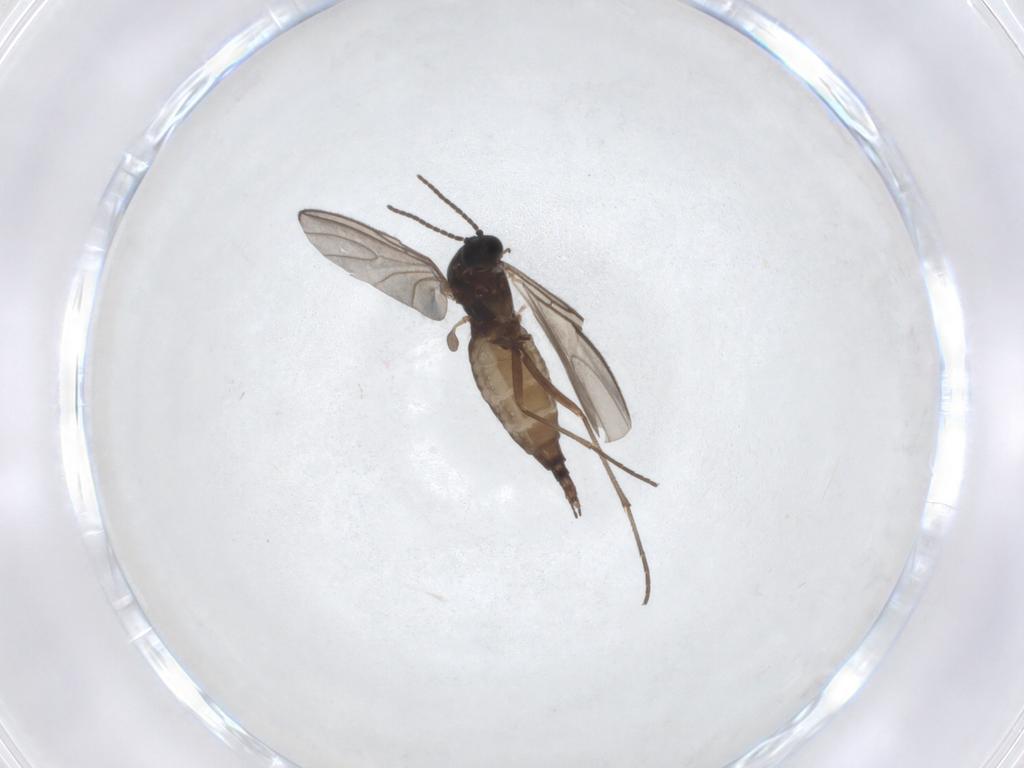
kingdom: Animalia
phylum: Arthropoda
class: Insecta
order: Diptera
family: Sciaridae
